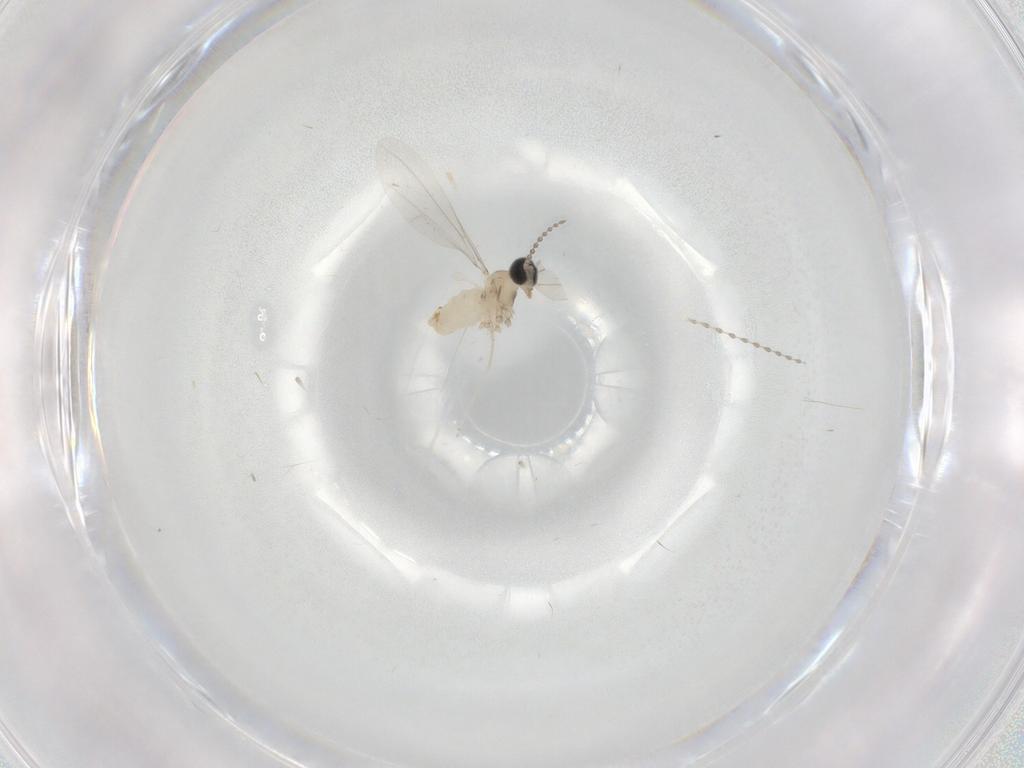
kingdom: Animalia
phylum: Arthropoda
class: Insecta
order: Diptera
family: Cecidomyiidae
